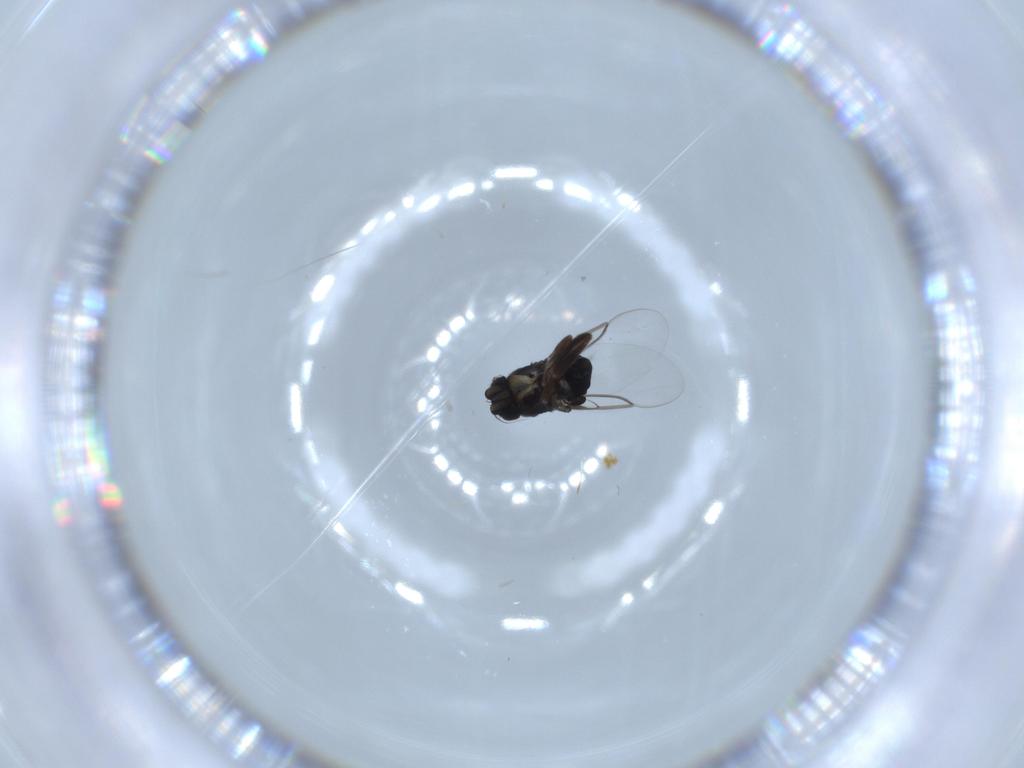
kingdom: Animalia
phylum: Arthropoda
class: Insecta
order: Diptera
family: Phoridae
